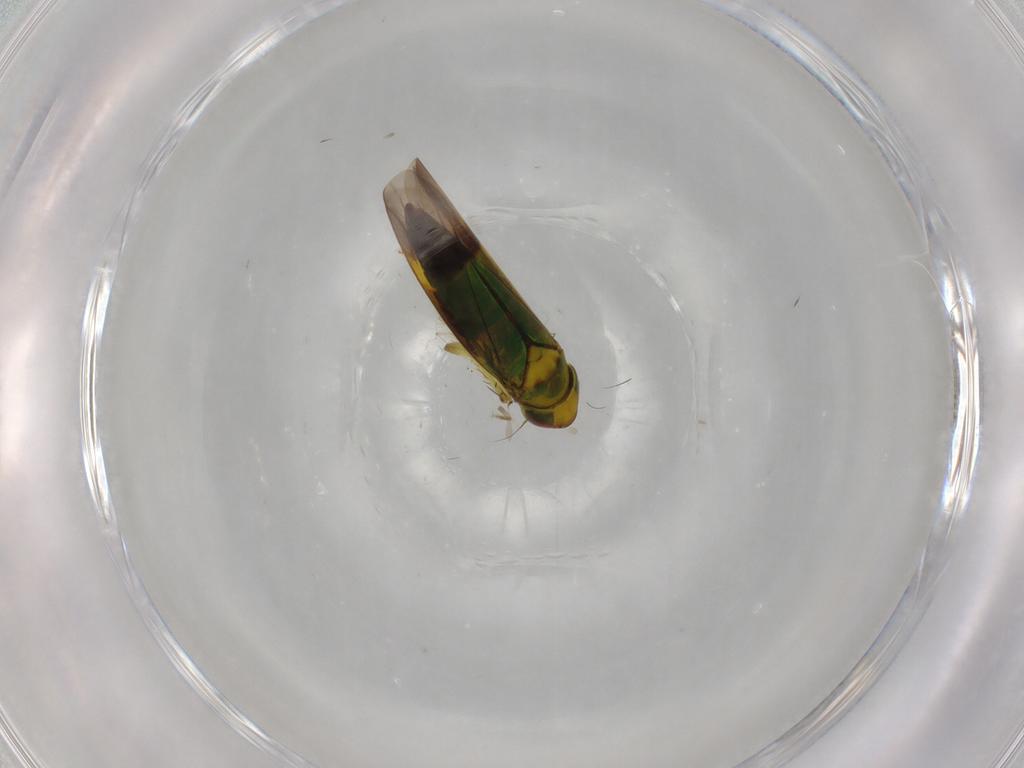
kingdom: Animalia
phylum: Arthropoda
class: Insecta
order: Hemiptera
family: Cicadellidae
